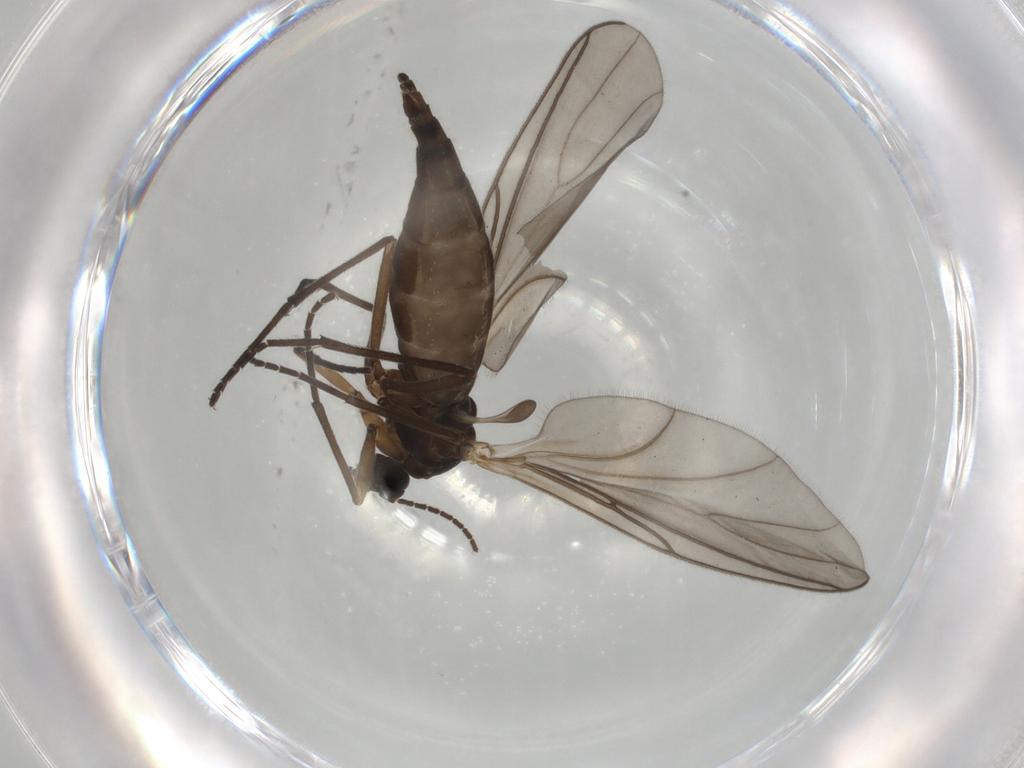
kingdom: Animalia
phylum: Arthropoda
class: Insecta
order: Diptera
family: Sciaridae
